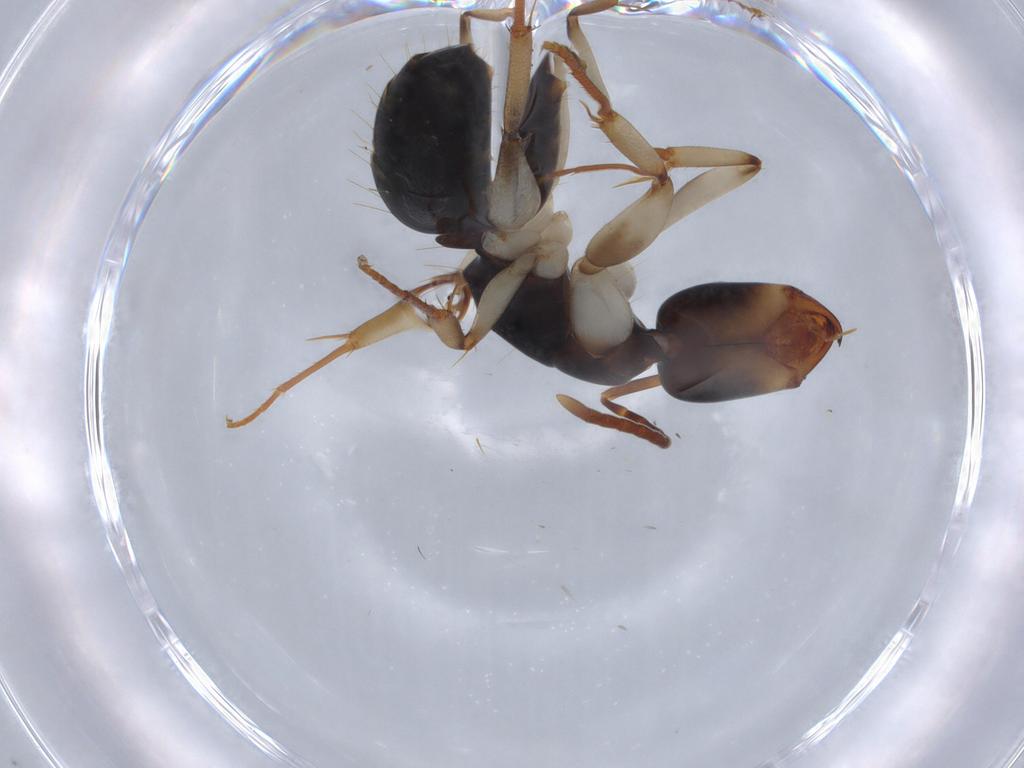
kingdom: Animalia
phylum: Arthropoda
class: Insecta
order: Hymenoptera
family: Formicidae
